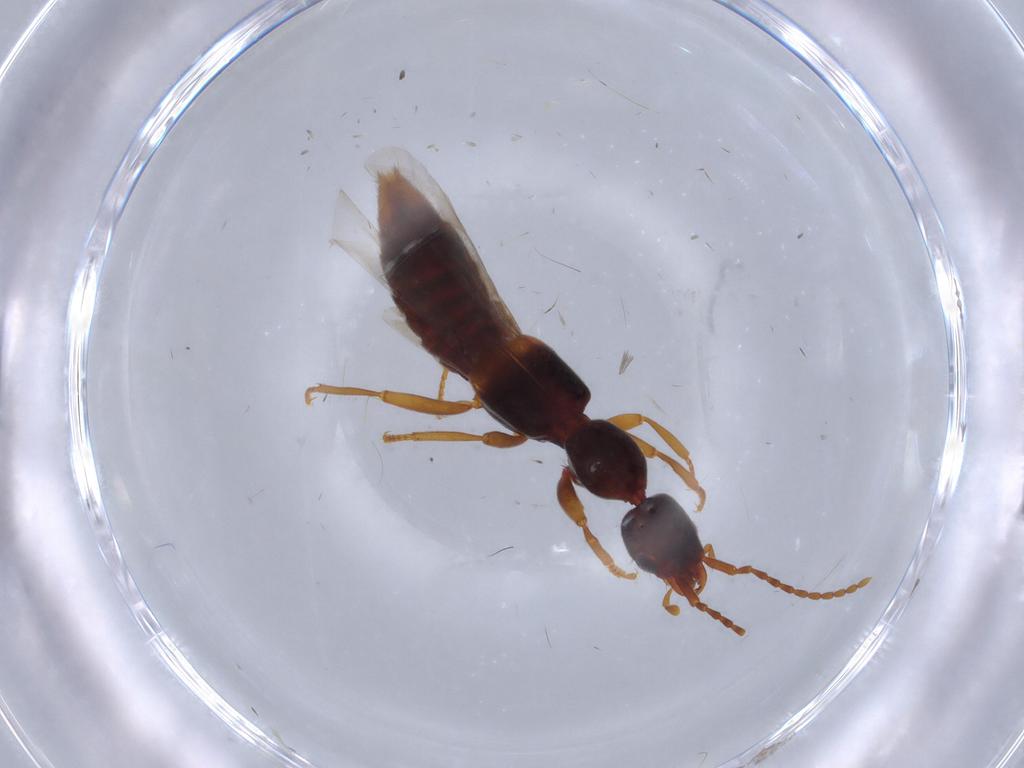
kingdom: Animalia
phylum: Arthropoda
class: Insecta
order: Coleoptera
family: Staphylinidae
